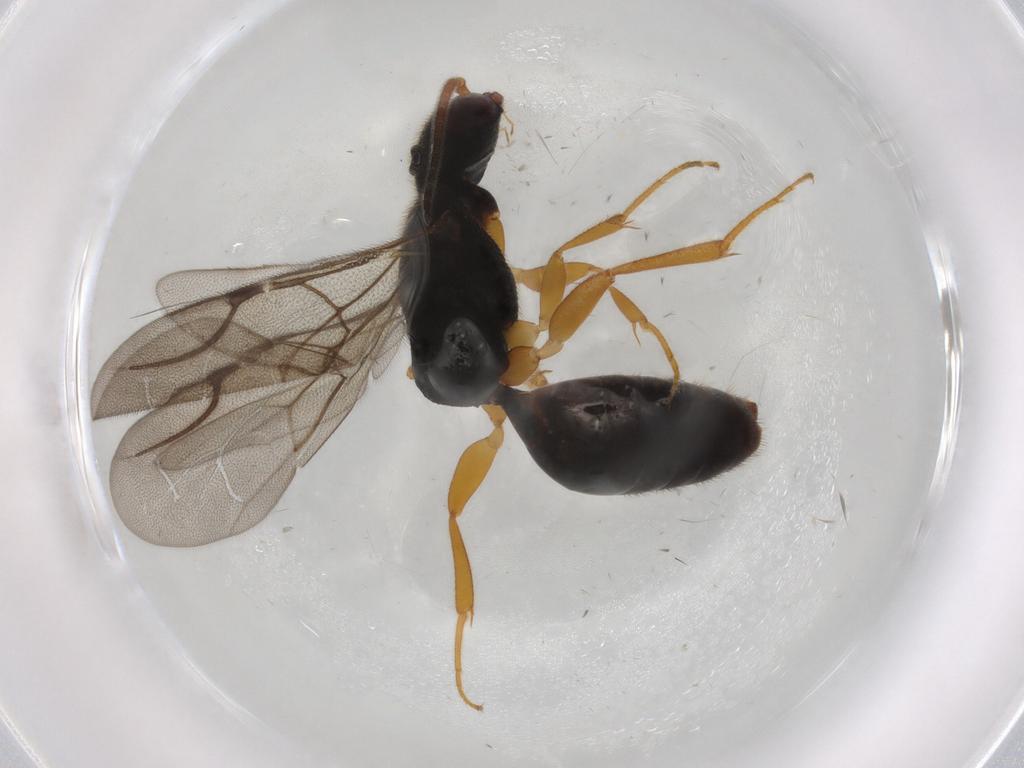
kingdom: Animalia
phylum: Arthropoda
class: Insecta
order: Hymenoptera
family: Bethylidae
